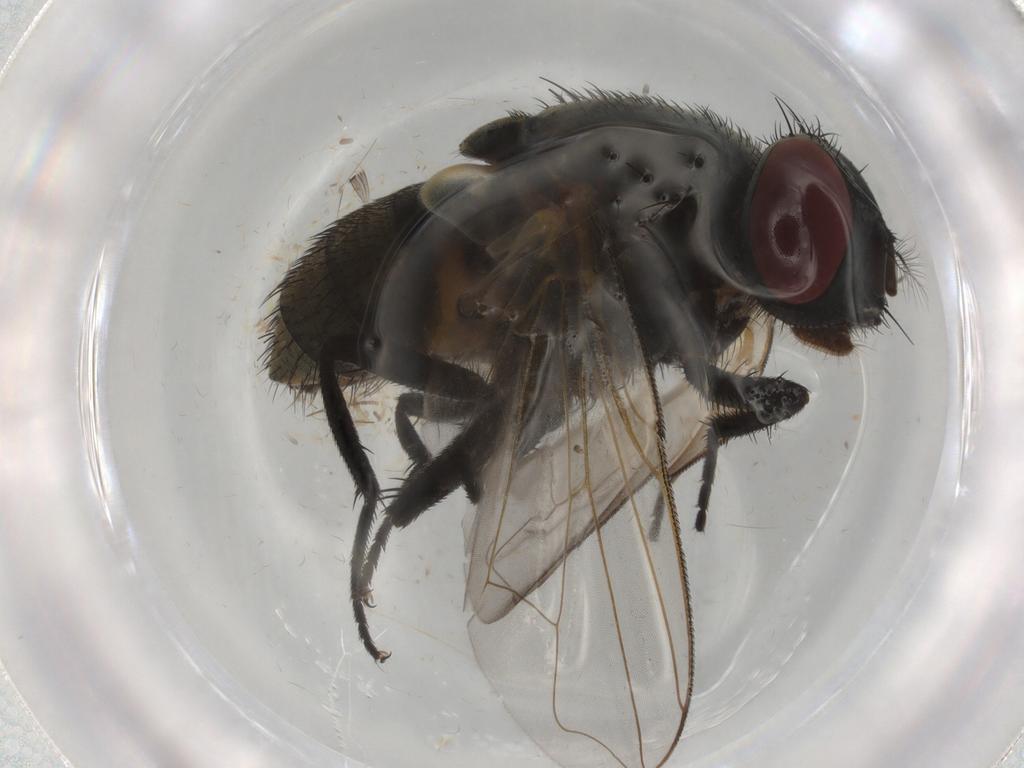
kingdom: Animalia
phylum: Arthropoda
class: Insecta
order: Diptera
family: Muscidae
